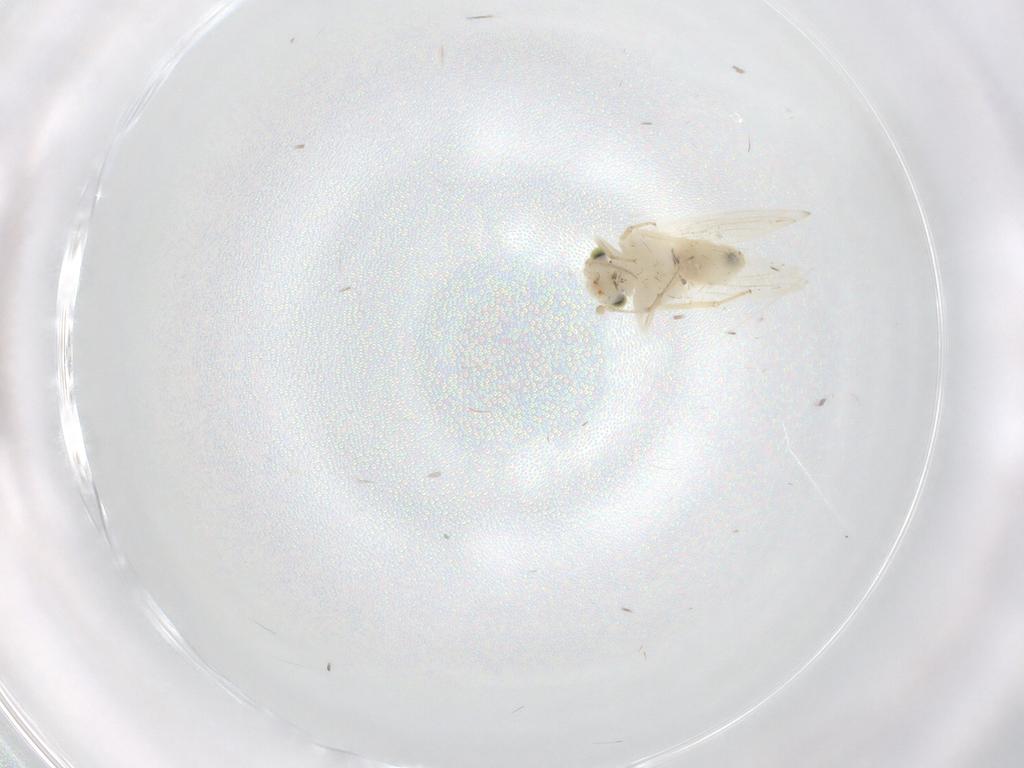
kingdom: Animalia
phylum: Arthropoda
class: Insecta
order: Psocodea
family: Lepidopsocidae
